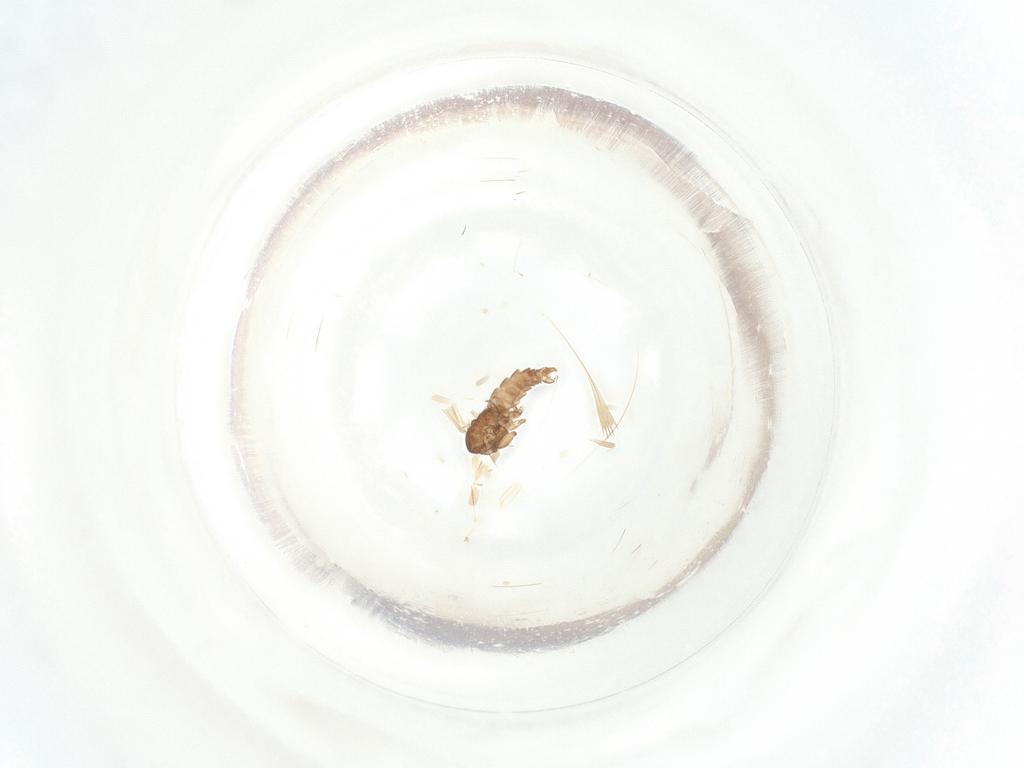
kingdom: Animalia
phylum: Arthropoda
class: Insecta
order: Diptera
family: Sciaridae
